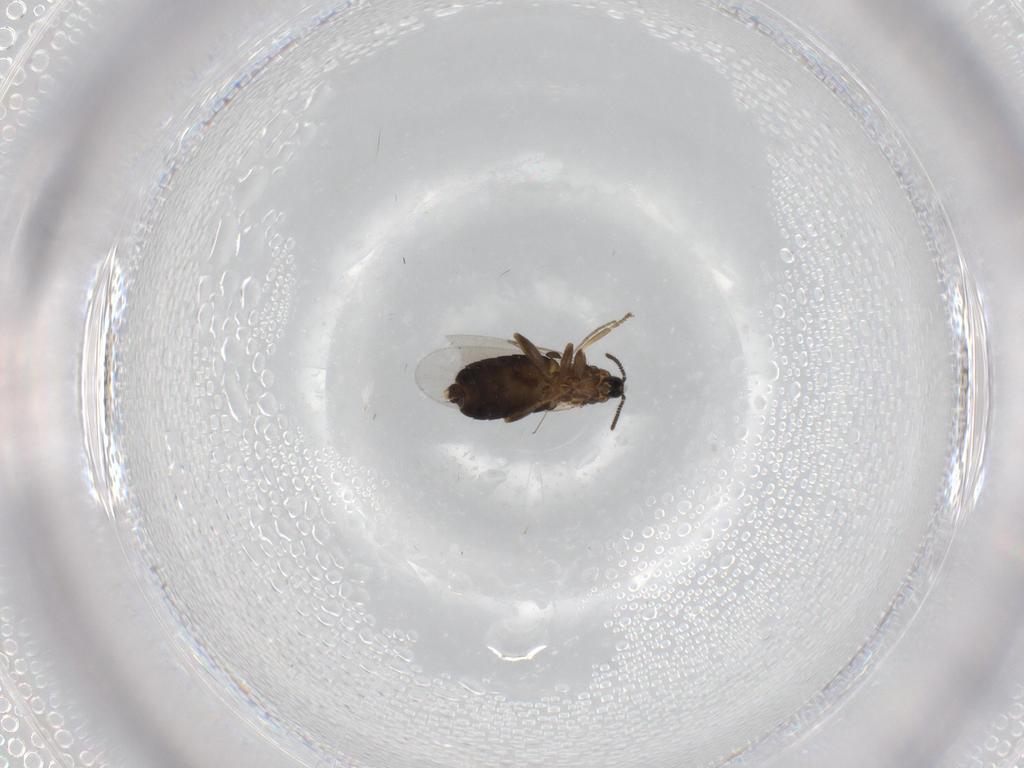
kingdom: Animalia
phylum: Arthropoda
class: Insecta
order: Diptera
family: Scatopsidae
